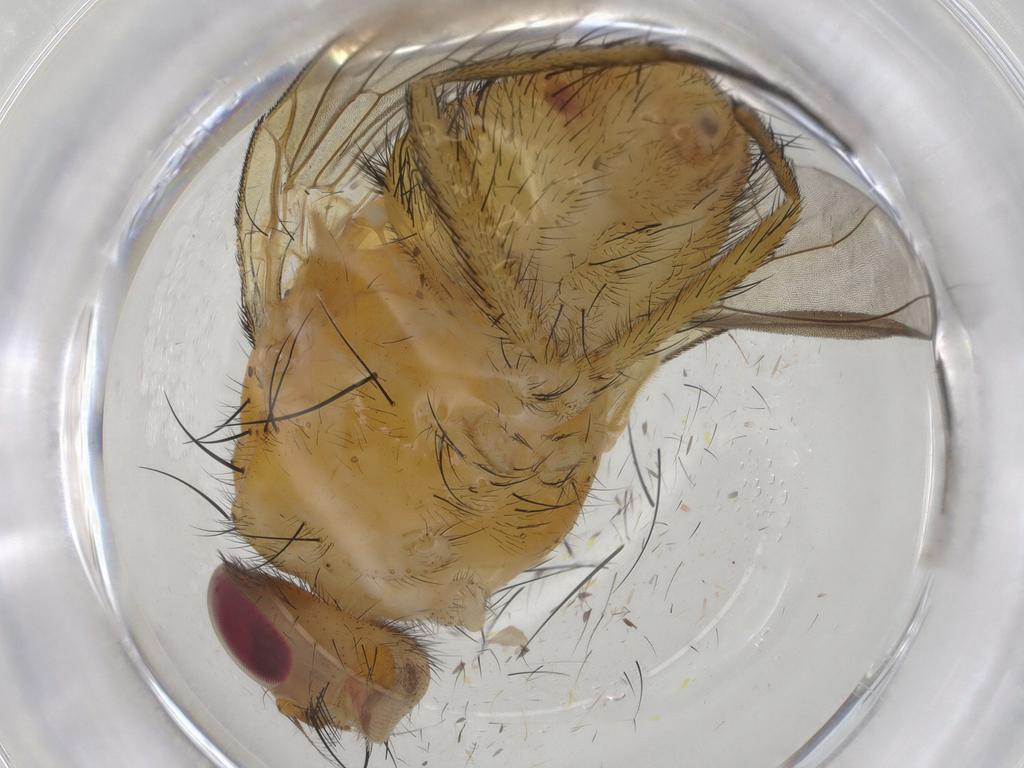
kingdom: Animalia
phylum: Arthropoda
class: Insecta
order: Diptera
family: Muscidae
